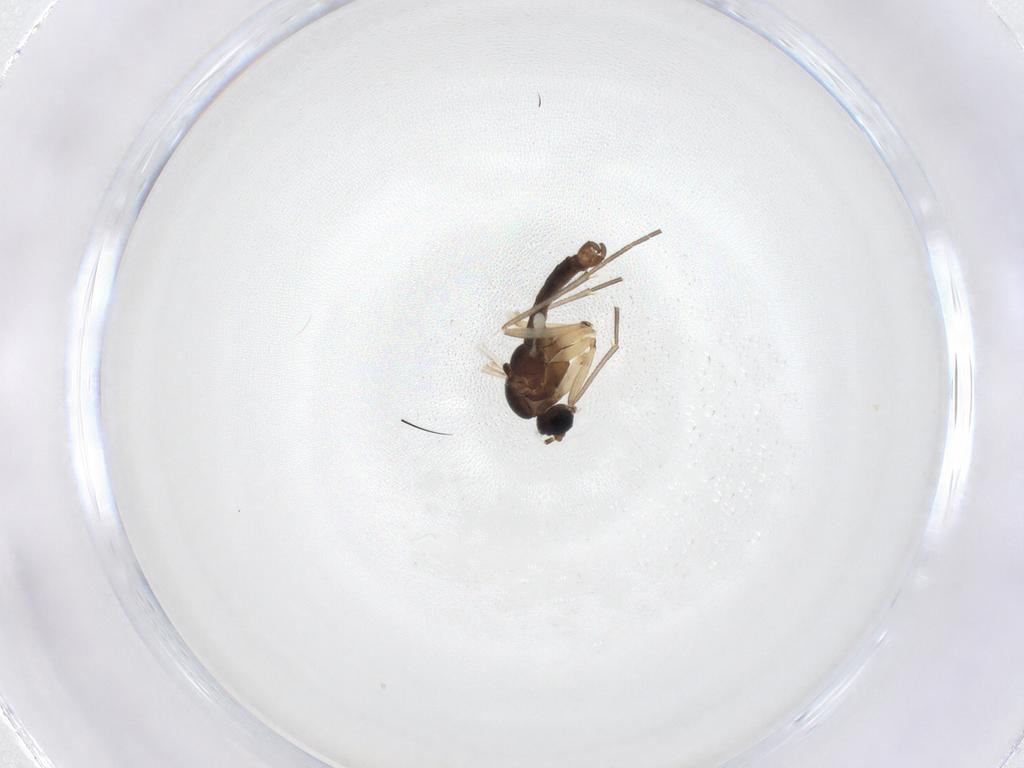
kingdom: Animalia
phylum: Arthropoda
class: Insecta
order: Diptera
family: Sciaridae
